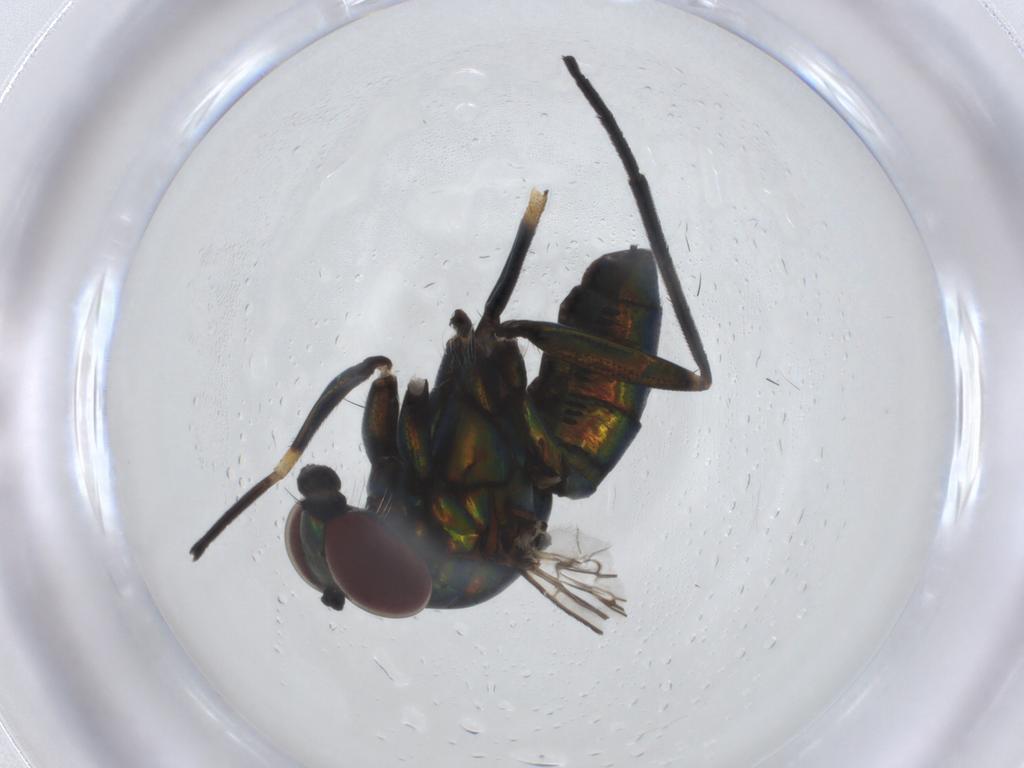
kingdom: Animalia
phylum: Arthropoda
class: Insecta
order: Diptera
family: Dolichopodidae
